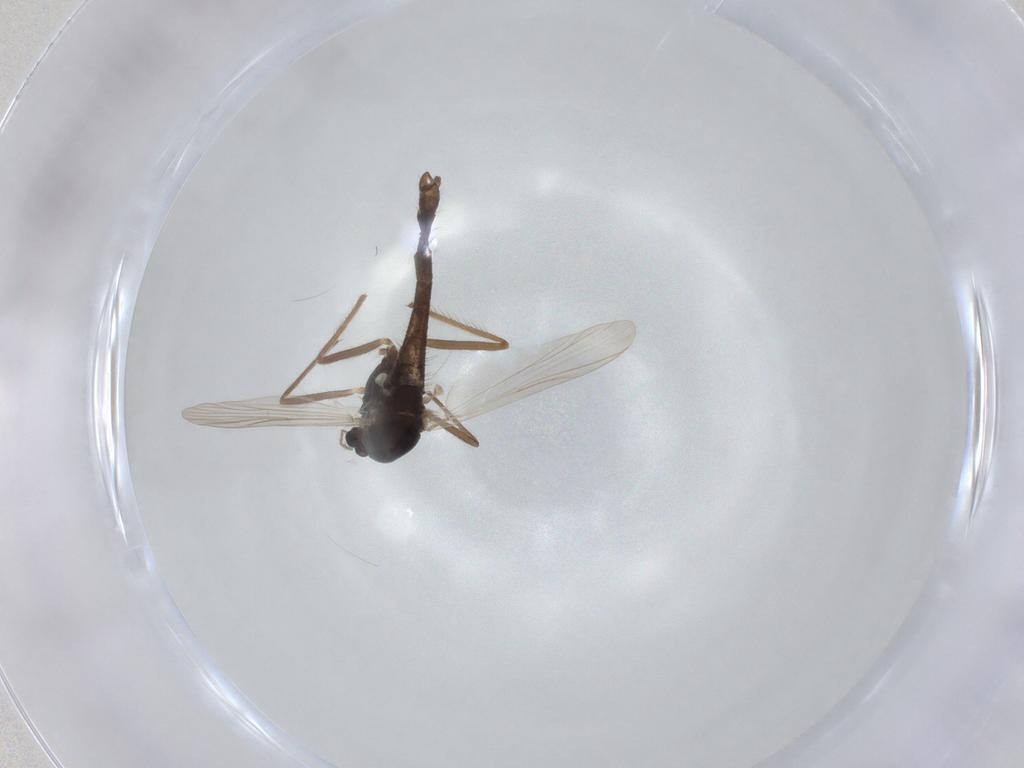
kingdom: Animalia
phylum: Arthropoda
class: Insecta
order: Diptera
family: Chironomidae
